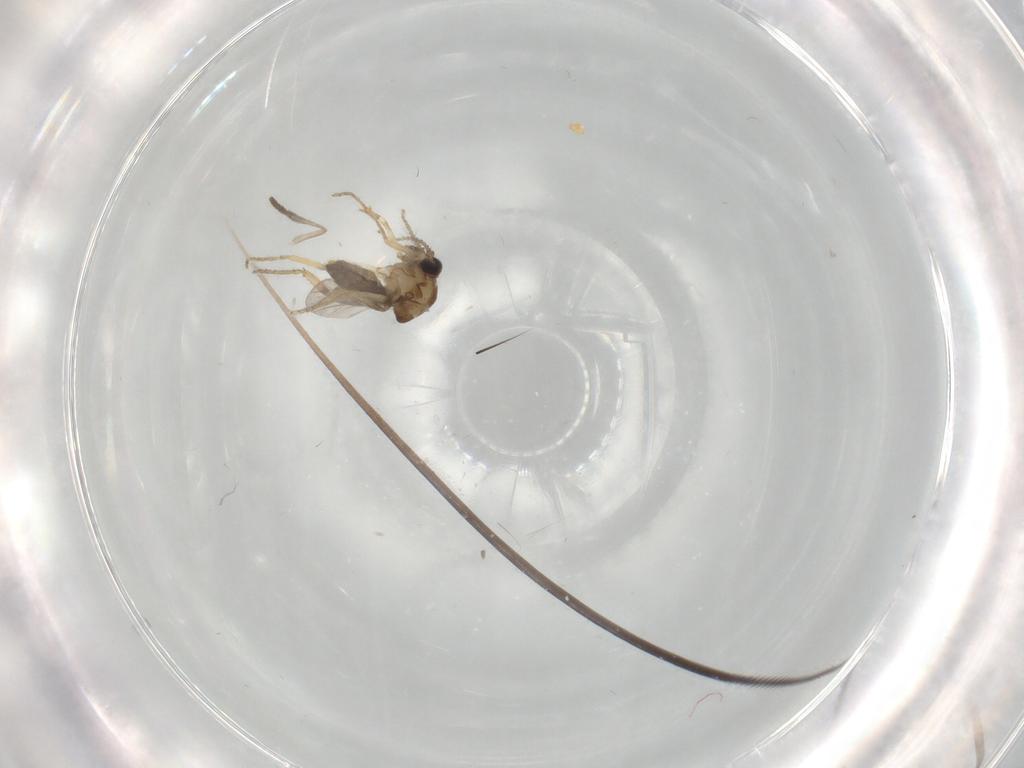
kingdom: Animalia
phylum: Arthropoda
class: Insecta
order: Diptera
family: Ceratopogonidae
